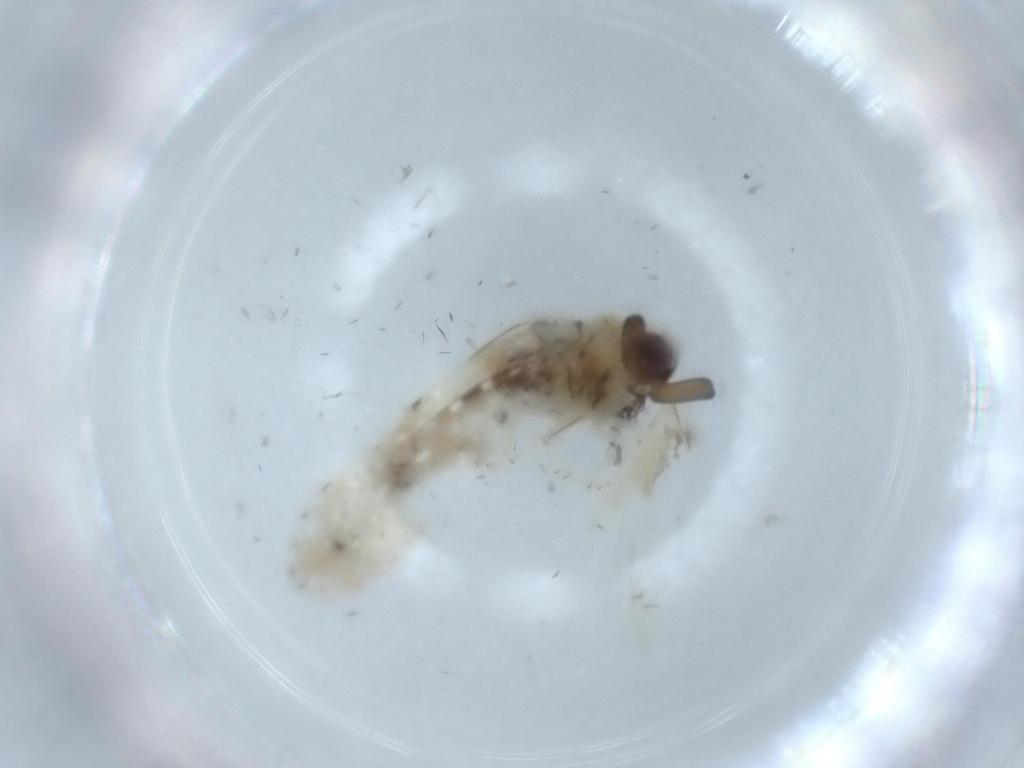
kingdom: Animalia
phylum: Arthropoda
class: Insecta
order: Hemiptera
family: Derbidae
